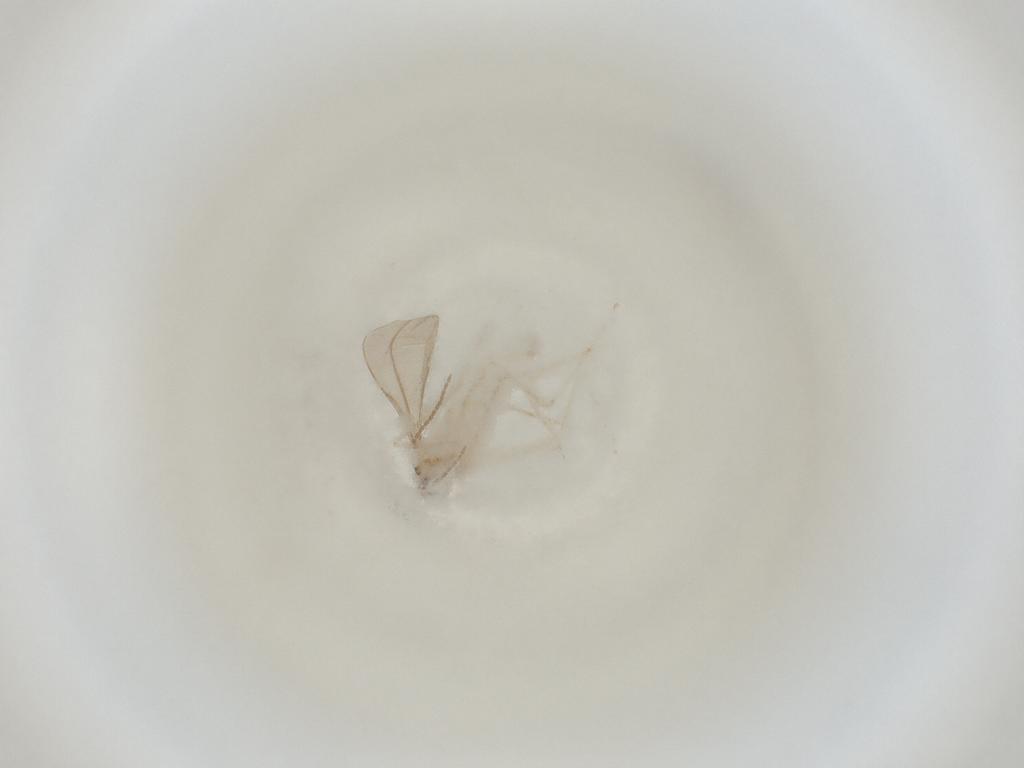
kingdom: Animalia
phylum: Arthropoda
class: Insecta
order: Diptera
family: Cecidomyiidae
